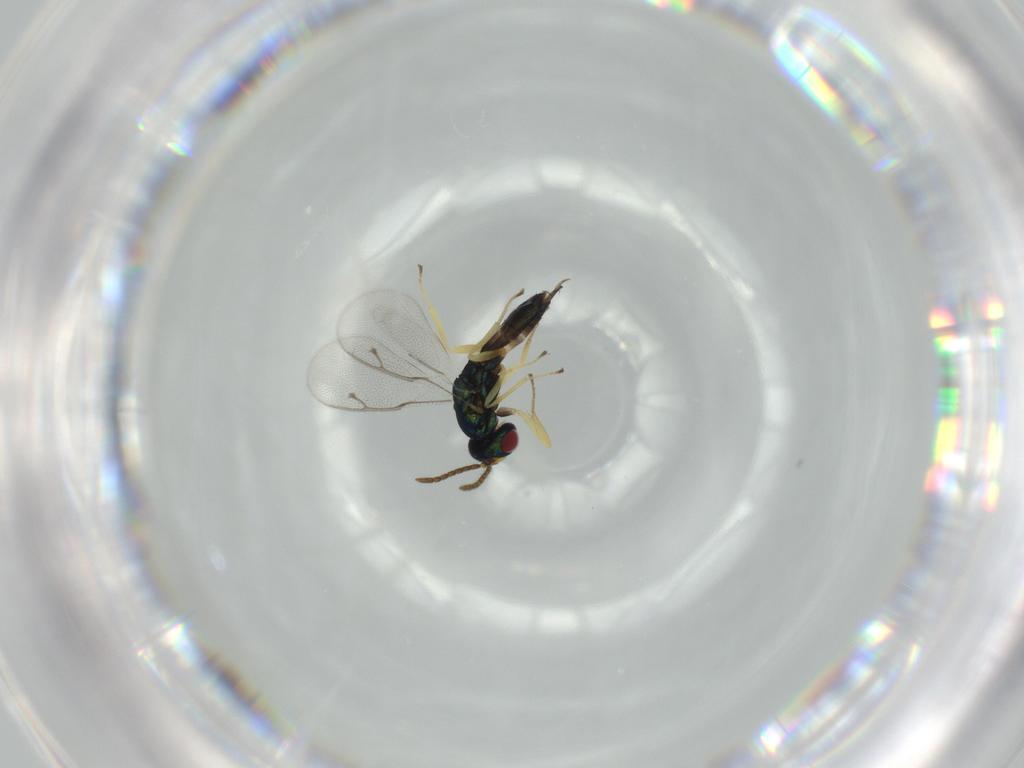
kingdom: Animalia
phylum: Arthropoda
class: Insecta
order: Hymenoptera
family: Pteromalidae
